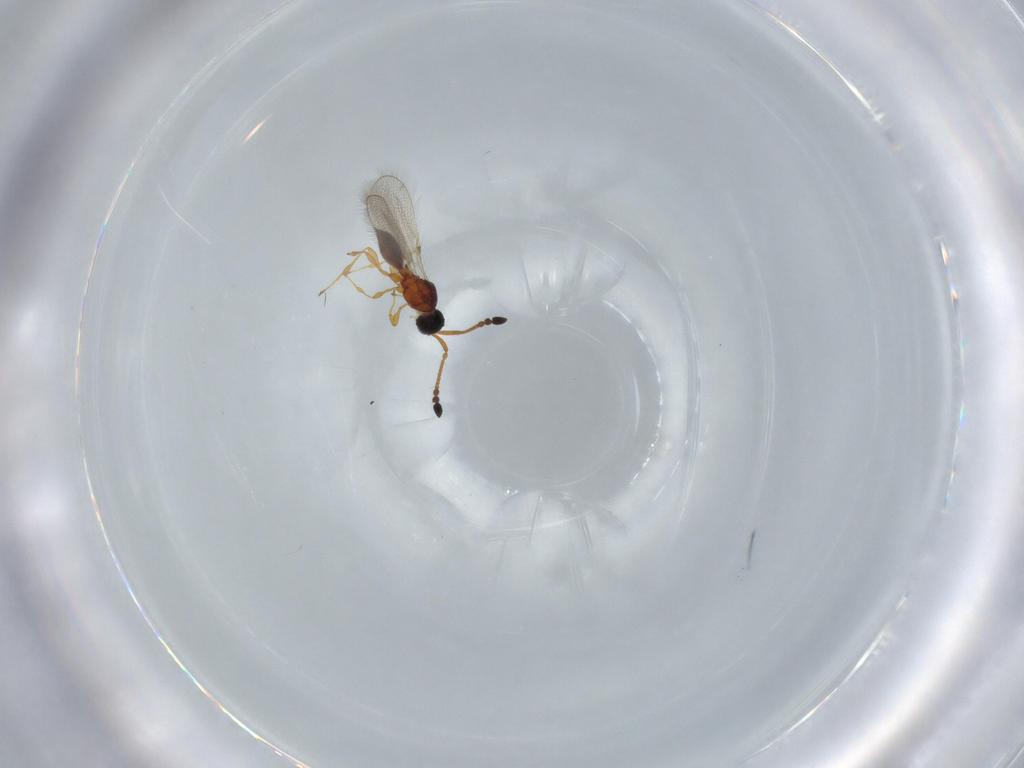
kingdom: Animalia
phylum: Arthropoda
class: Insecta
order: Hymenoptera
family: Diapriidae
